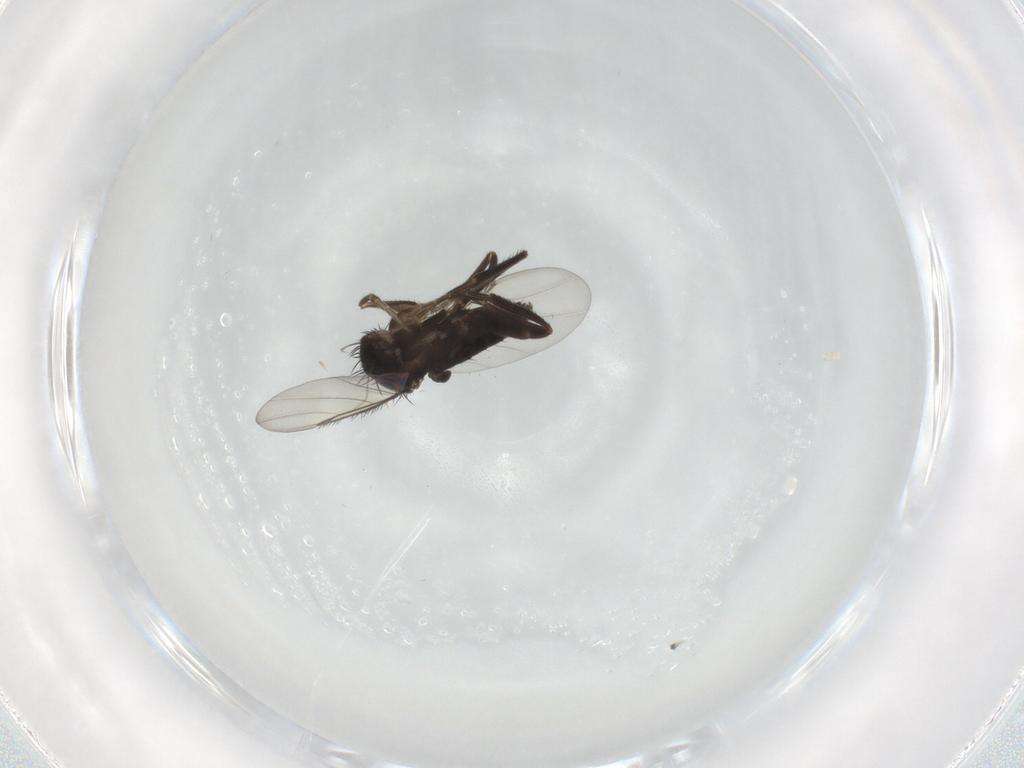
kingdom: Animalia
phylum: Arthropoda
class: Insecta
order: Diptera
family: Phoridae
